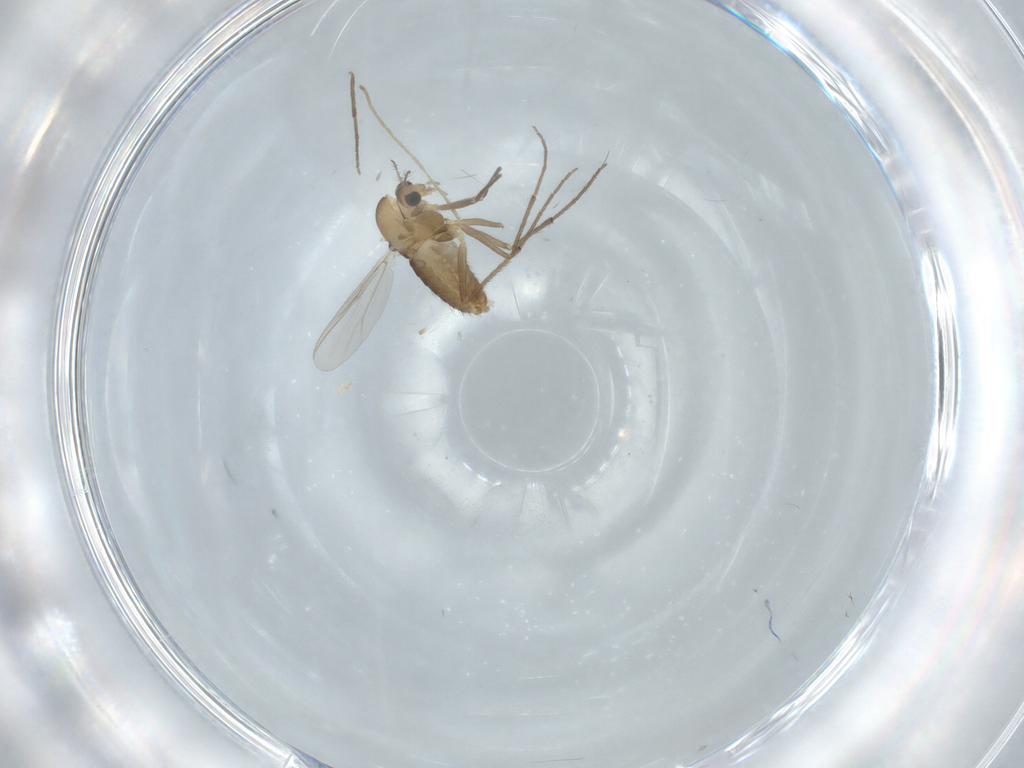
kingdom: Animalia
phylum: Arthropoda
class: Insecta
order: Diptera
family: Chironomidae
